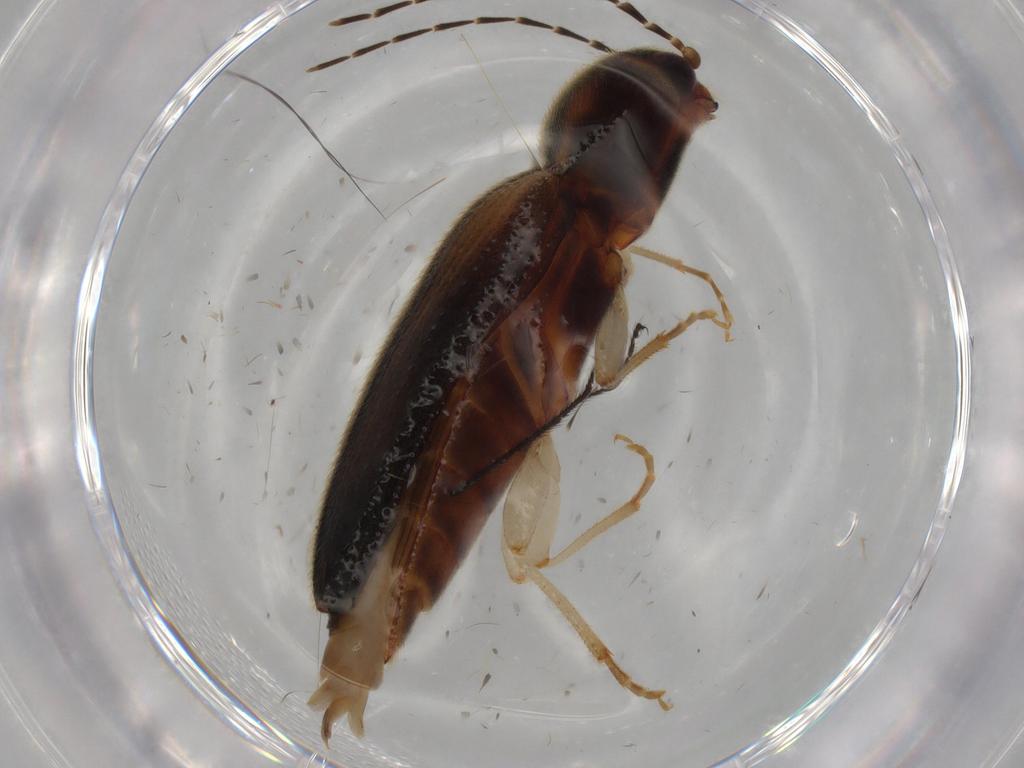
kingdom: Animalia
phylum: Arthropoda
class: Insecta
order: Coleoptera
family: Elateridae
